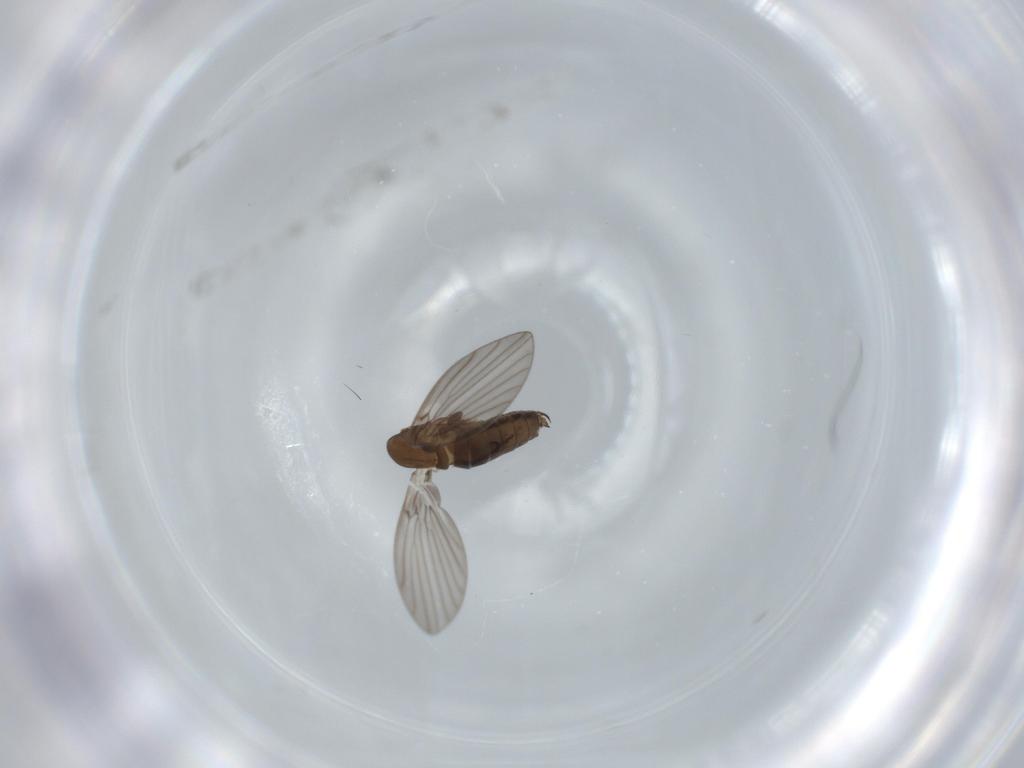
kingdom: Animalia
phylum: Arthropoda
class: Insecta
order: Diptera
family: Psychodidae
